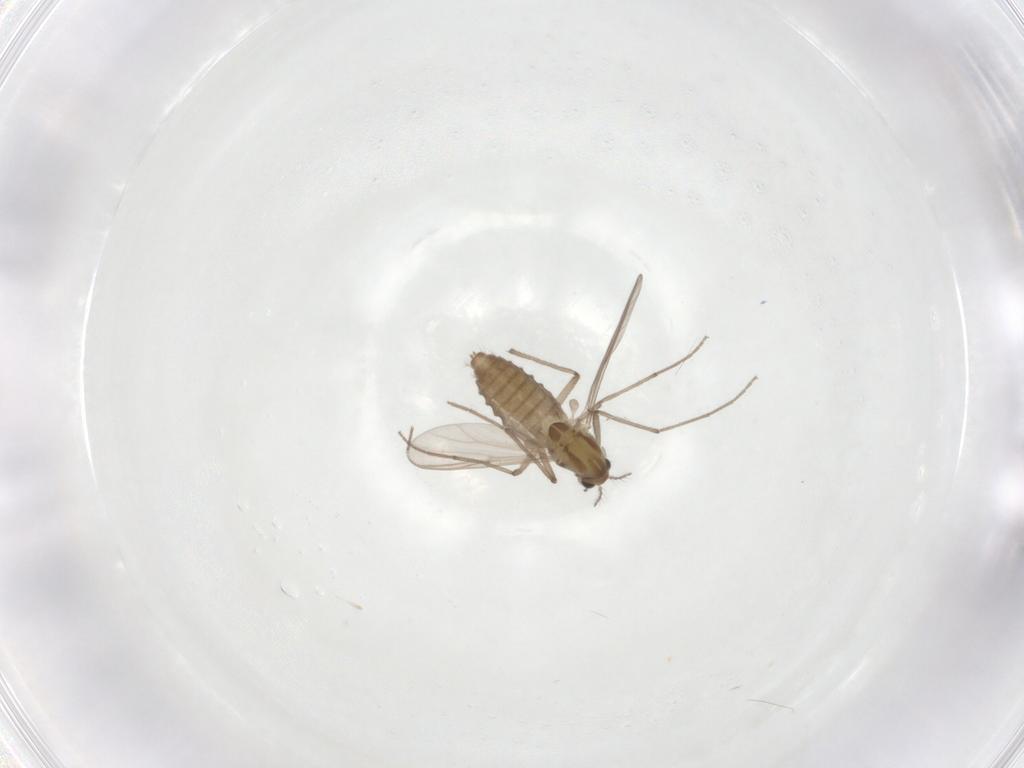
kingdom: Animalia
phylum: Arthropoda
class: Insecta
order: Diptera
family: Chironomidae
